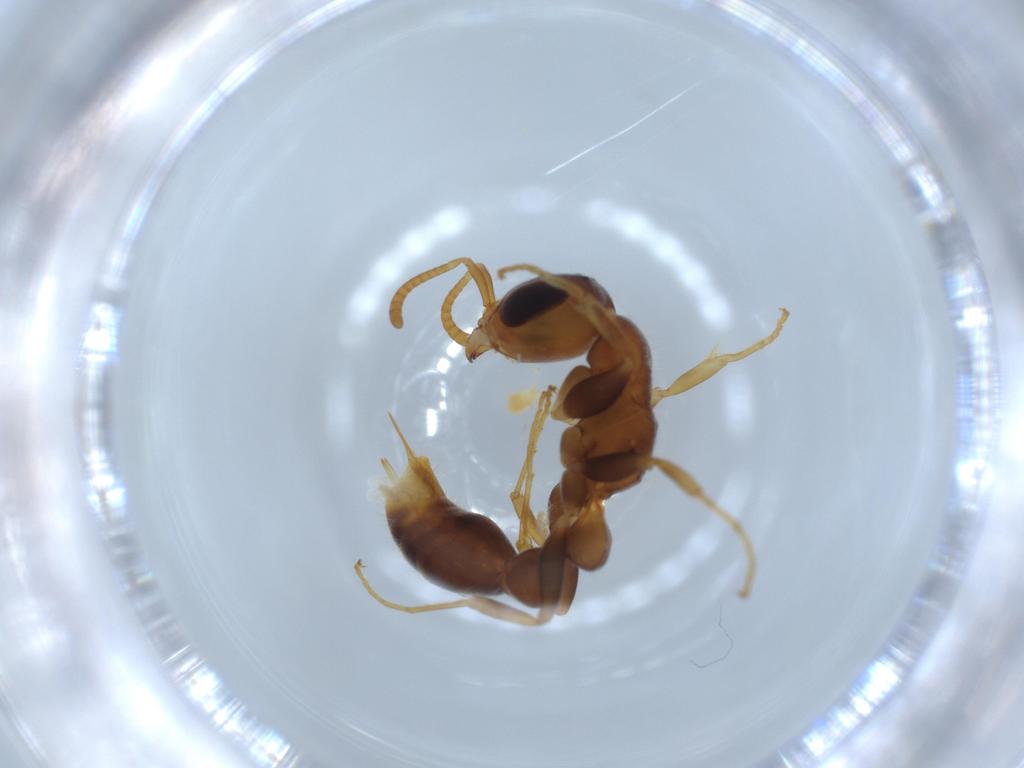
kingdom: Animalia
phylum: Arthropoda
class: Insecta
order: Hymenoptera
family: Formicidae
